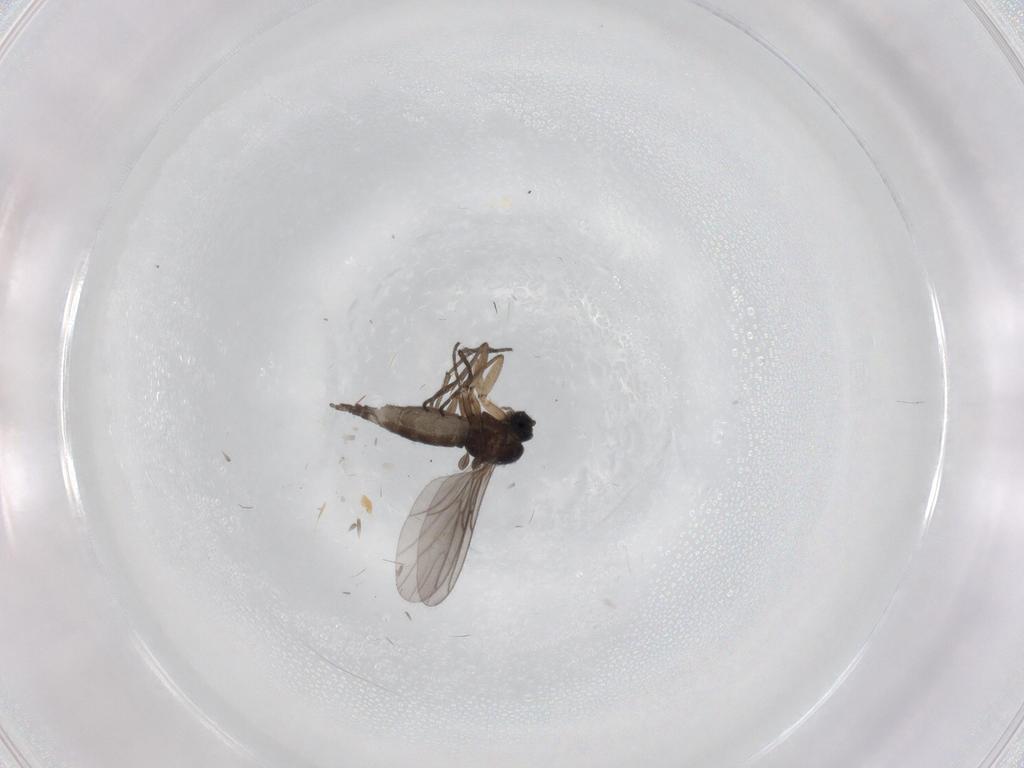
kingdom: Animalia
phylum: Arthropoda
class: Insecta
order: Diptera
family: Sciaridae
